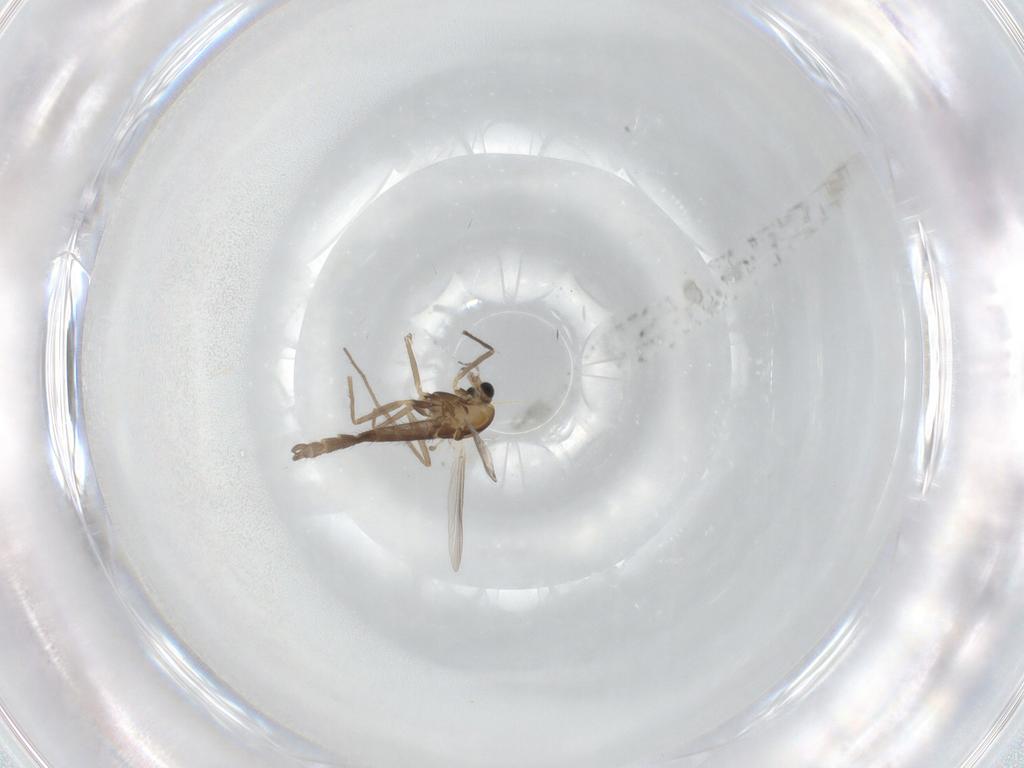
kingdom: Animalia
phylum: Arthropoda
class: Insecta
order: Diptera
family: Chironomidae
